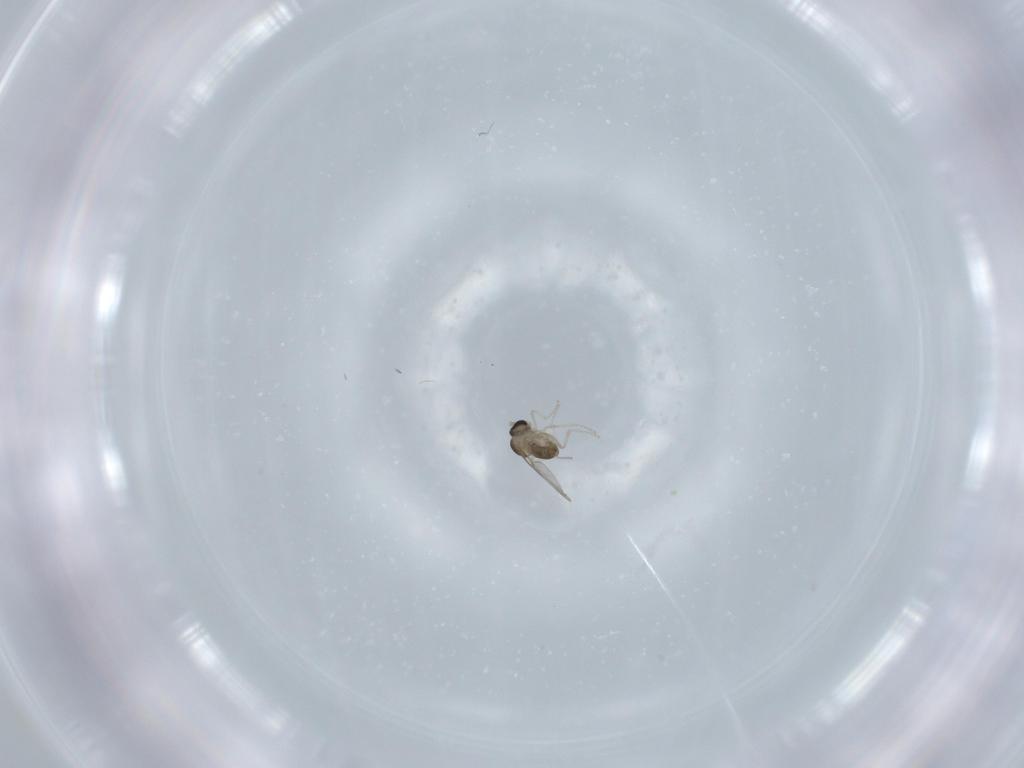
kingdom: Animalia
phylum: Arthropoda
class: Insecta
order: Diptera
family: Cecidomyiidae
